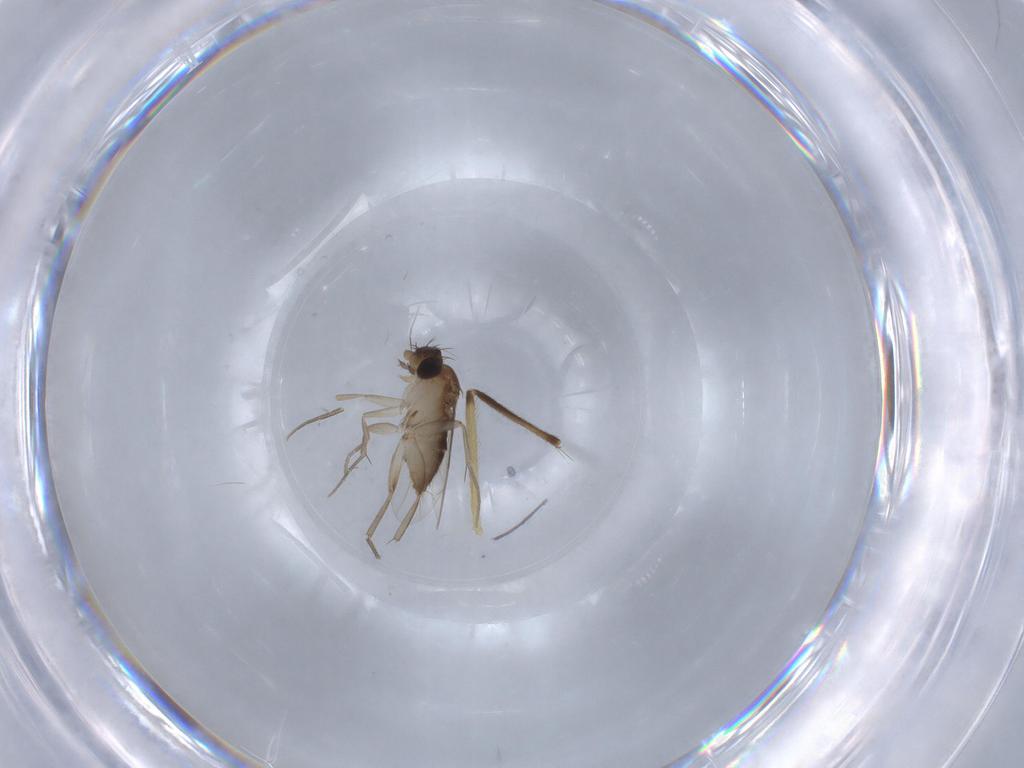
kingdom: Animalia
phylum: Arthropoda
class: Insecta
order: Diptera
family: Phoridae
